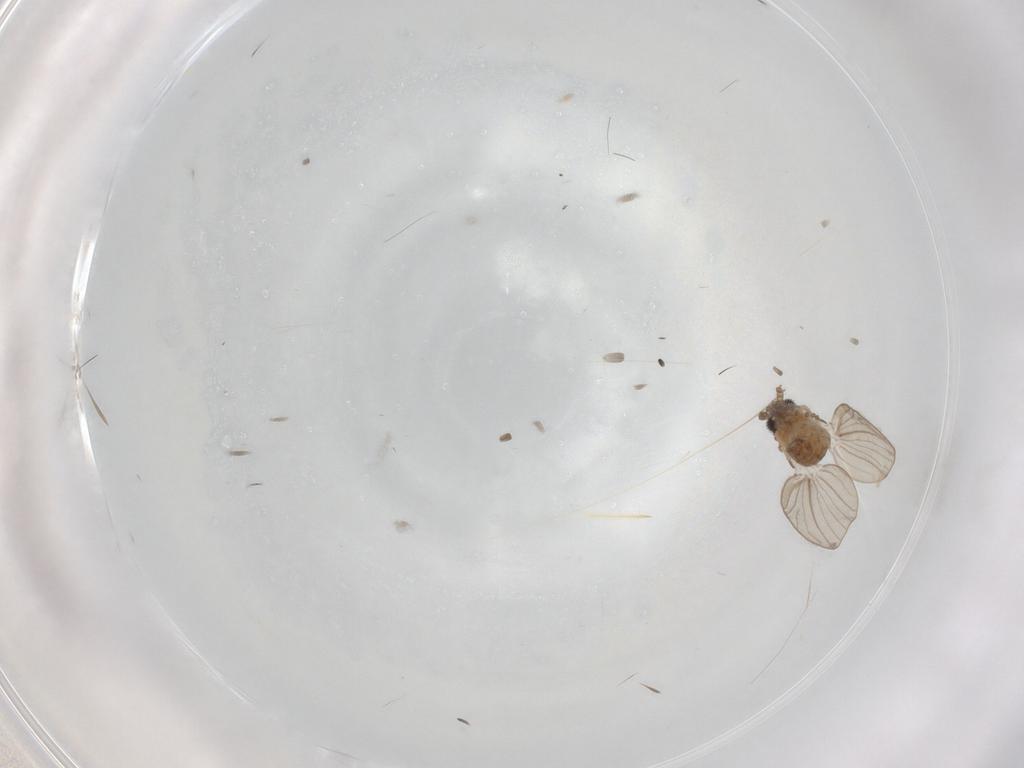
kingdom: Animalia
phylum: Arthropoda
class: Insecta
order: Diptera
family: Psychodidae
